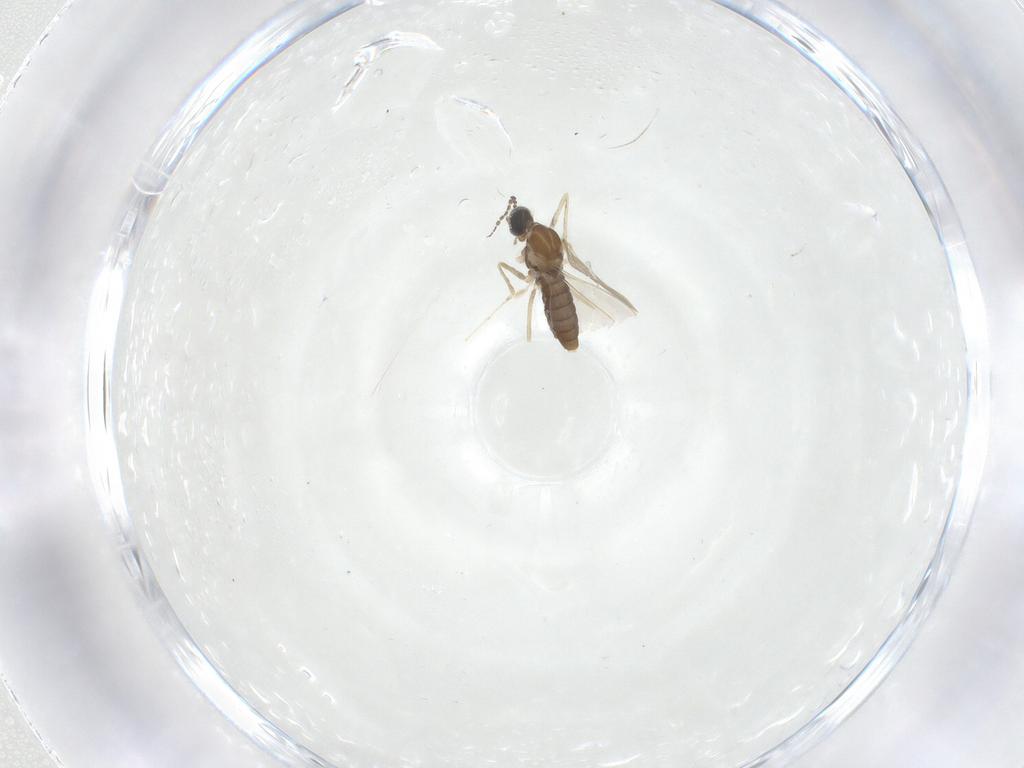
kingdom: Animalia
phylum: Arthropoda
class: Insecta
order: Diptera
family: Cecidomyiidae
